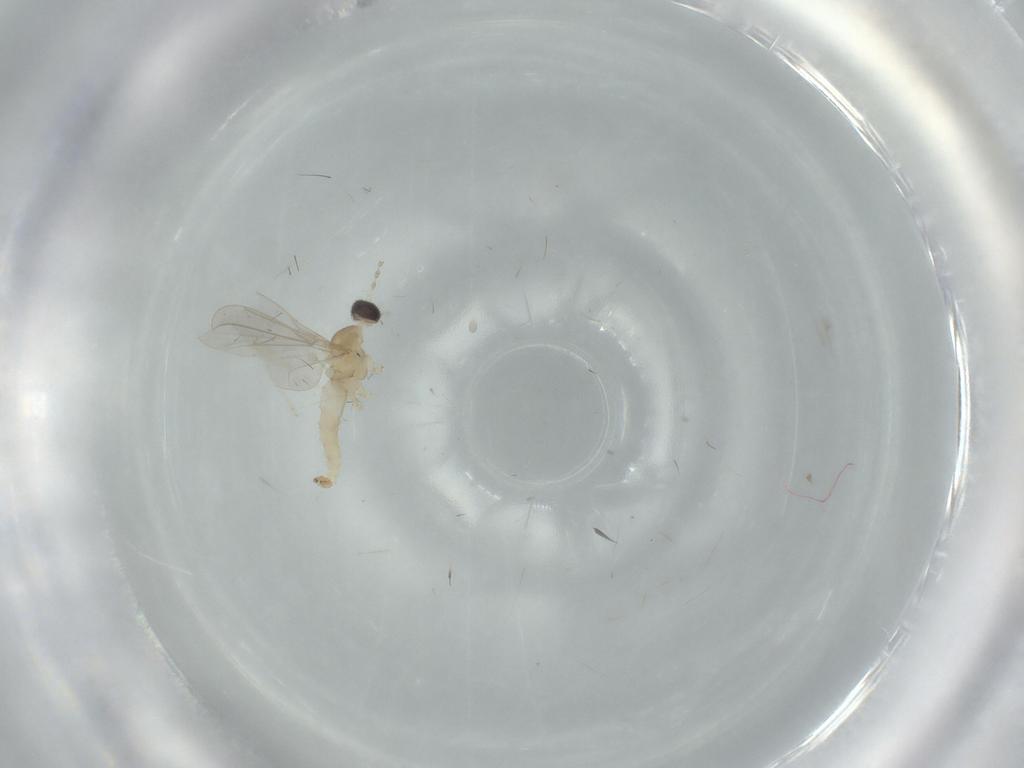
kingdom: Animalia
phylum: Arthropoda
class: Insecta
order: Diptera
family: Cecidomyiidae
